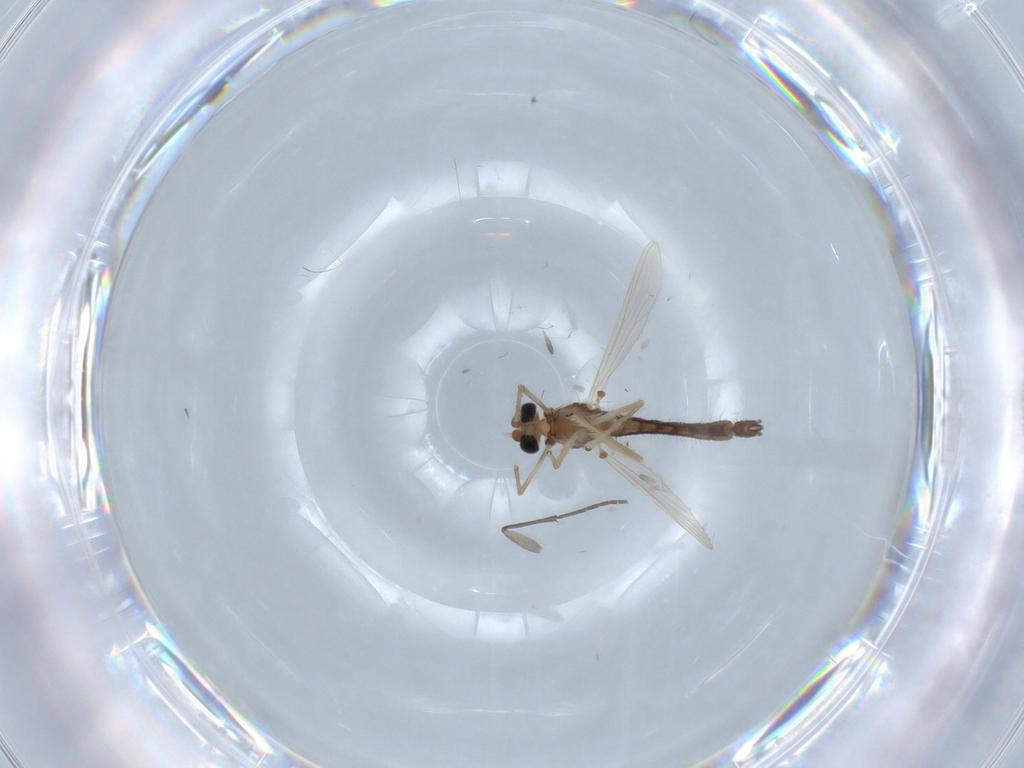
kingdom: Animalia
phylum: Arthropoda
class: Insecta
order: Diptera
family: Chironomidae
